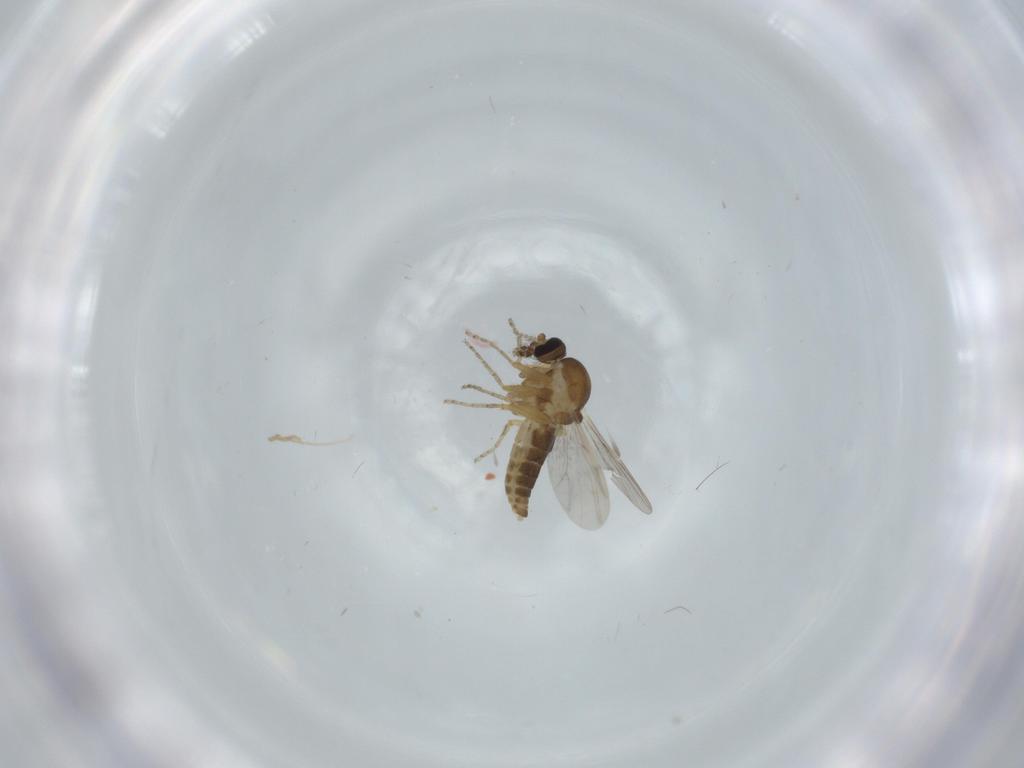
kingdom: Animalia
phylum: Arthropoda
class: Insecta
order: Diptera
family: Ceratopogonidae
